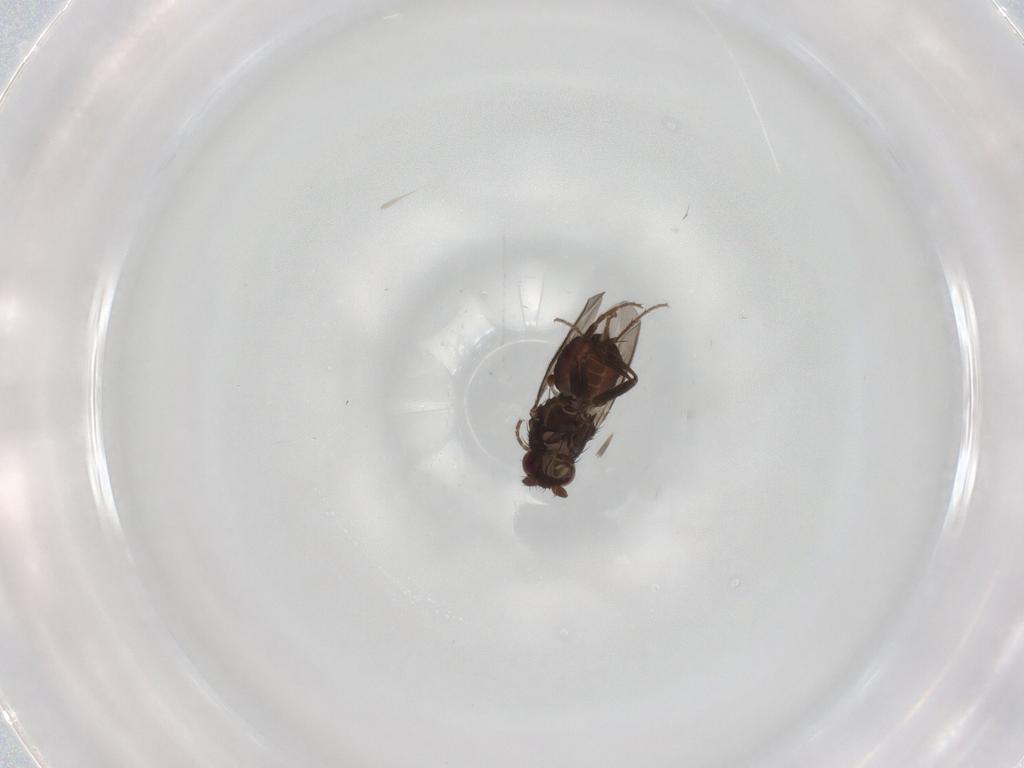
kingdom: Animalia
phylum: Arthropoda
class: Insecta
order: Diptera
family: Sphaeroceridae
